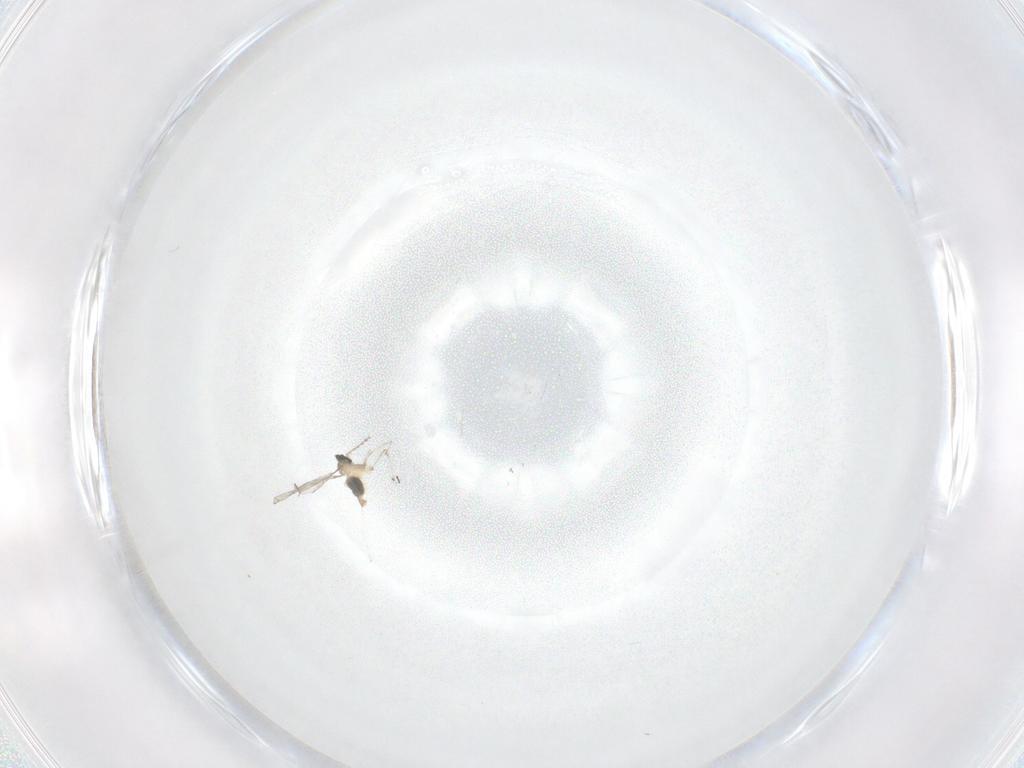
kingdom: Animalia
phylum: Arthropoda
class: Insecta
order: Diptera
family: Cecidomyiidae
